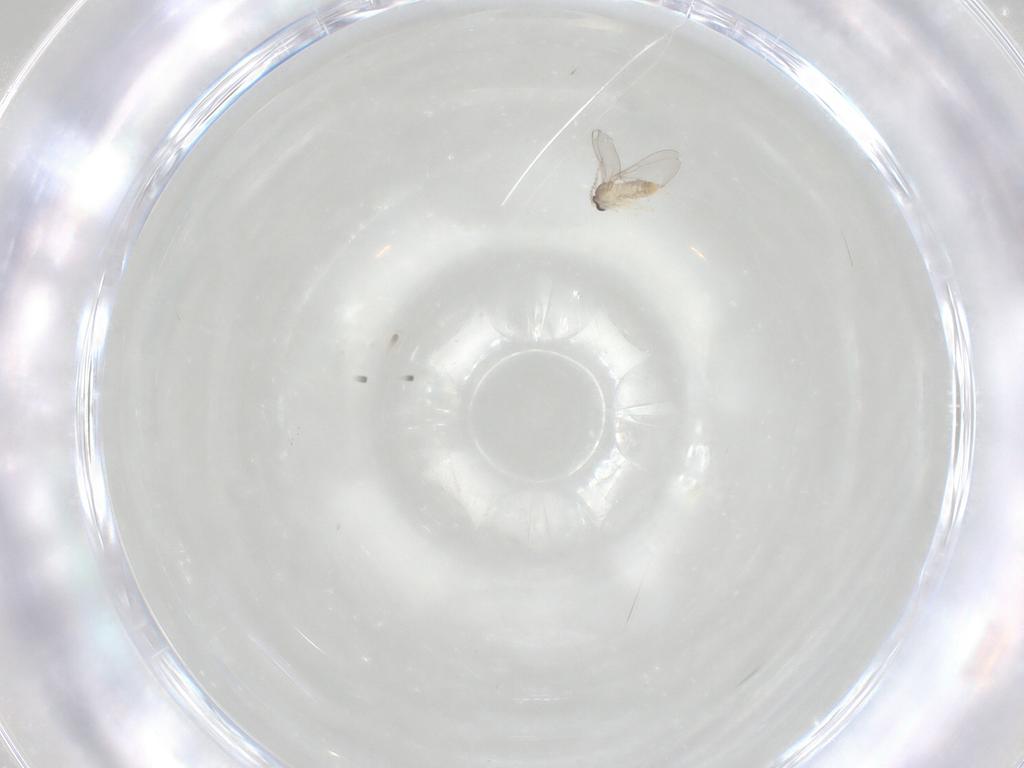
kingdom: Animalia
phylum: Arthropoda
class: Insecta
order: Diptera
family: Cecidomyiidae
